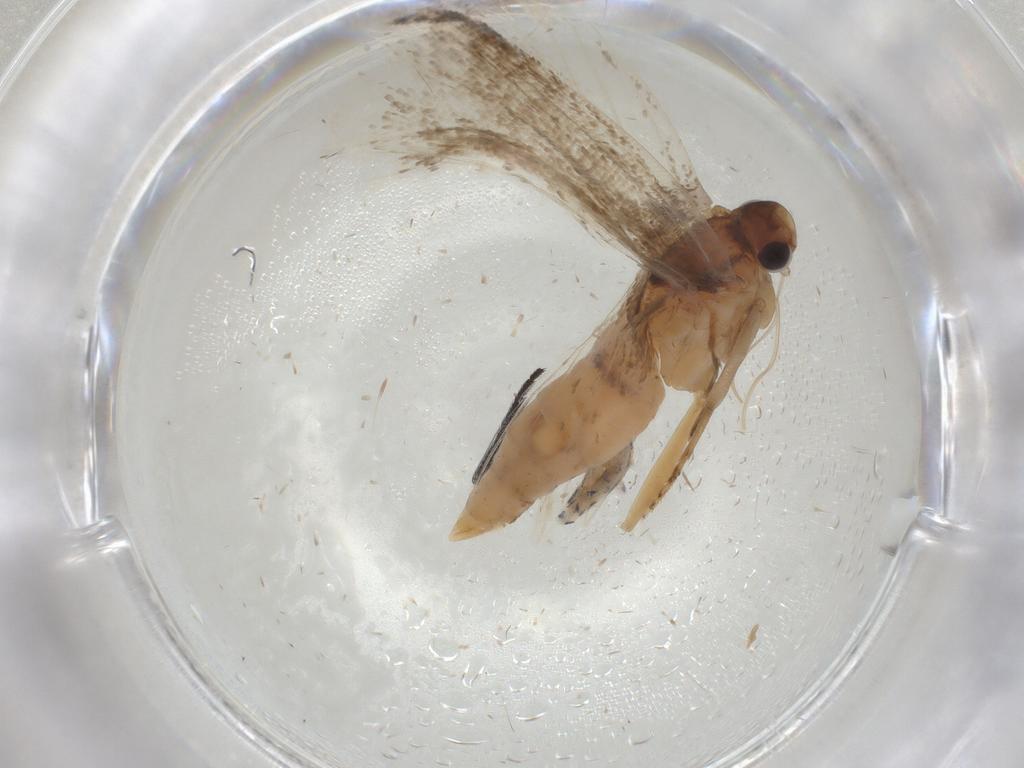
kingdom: Animalia
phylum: Arthropoda
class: Insecta
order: Lepidoptera
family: Gelechiidae
